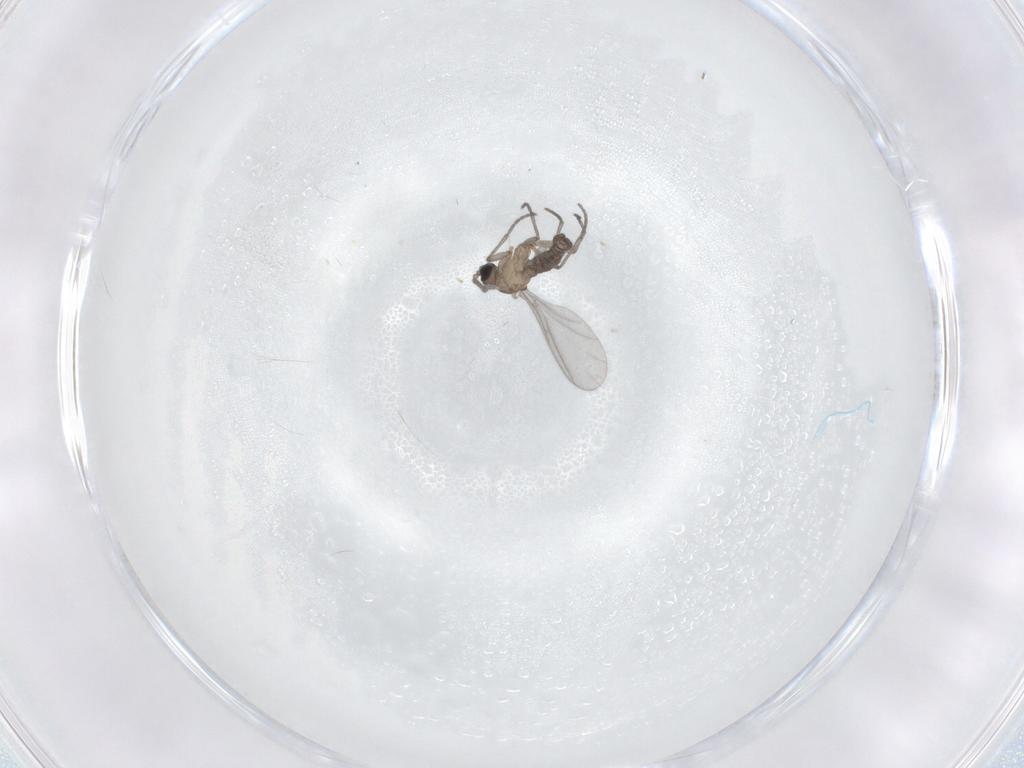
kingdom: Animalia
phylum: Arthropoda
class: Insecta
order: Diptera
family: Sciaridae
